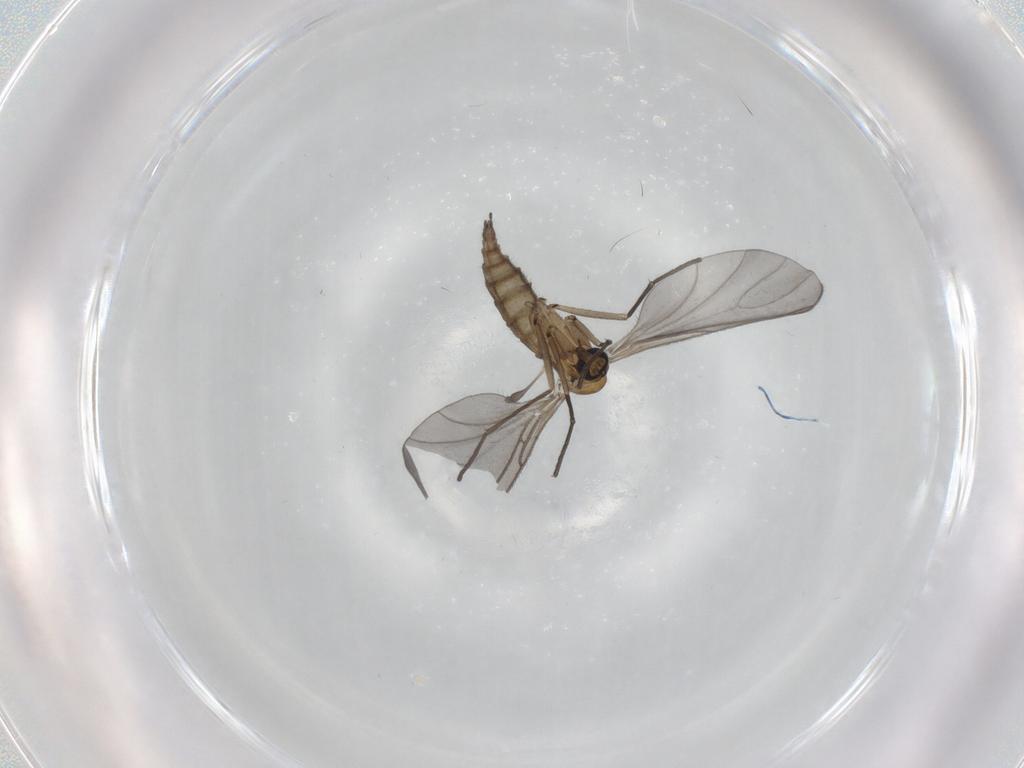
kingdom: Animalia
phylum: Arthropoda
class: Insecta
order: Diptera
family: Sciaridae
